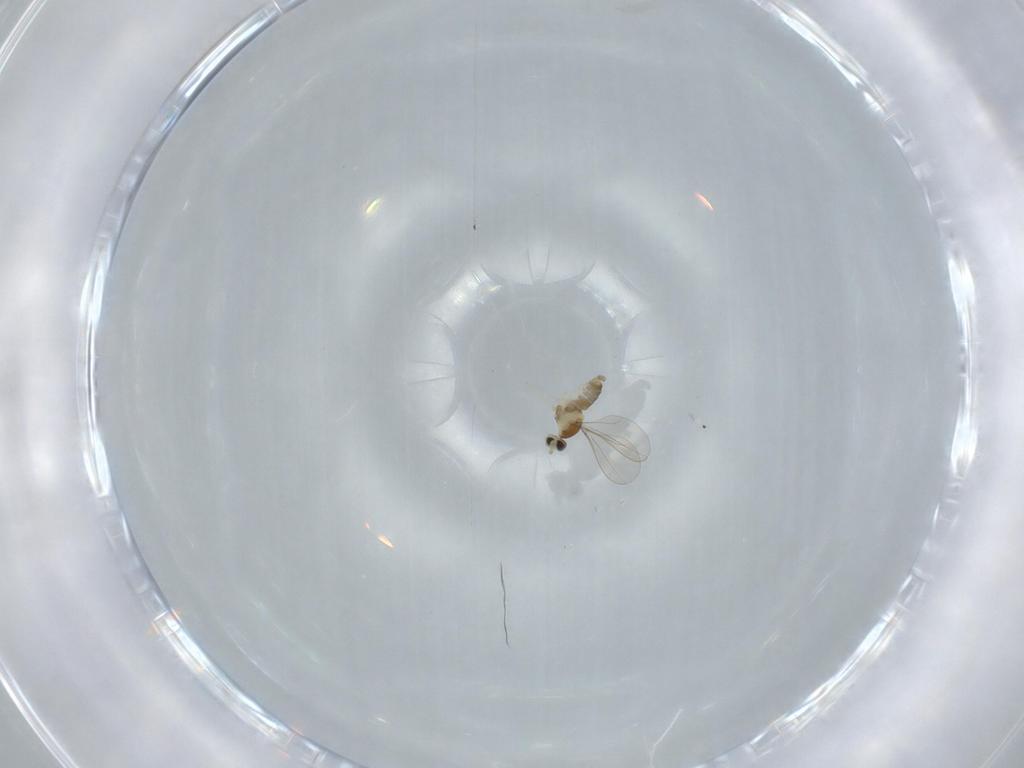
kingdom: Animalia
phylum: Arthropoda
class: Insecta
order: Diptera
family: Cecidomyiidae
